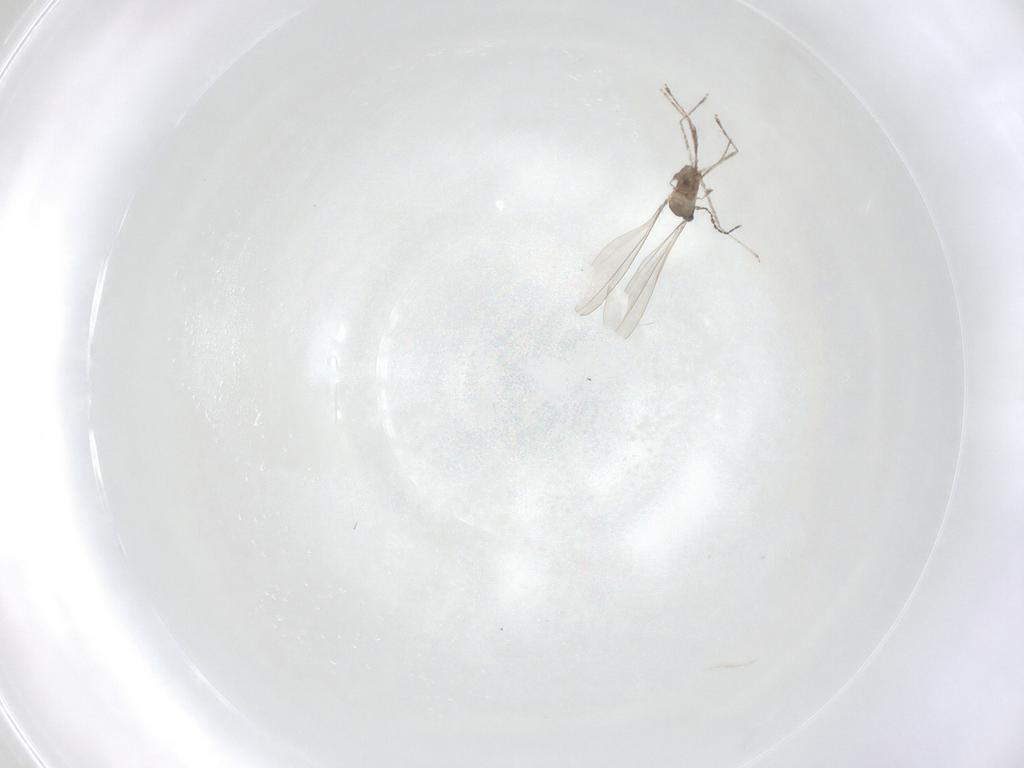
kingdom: Animalia
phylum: Arthropoda
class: Insecta
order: Diptera
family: Cecidomyiidae
